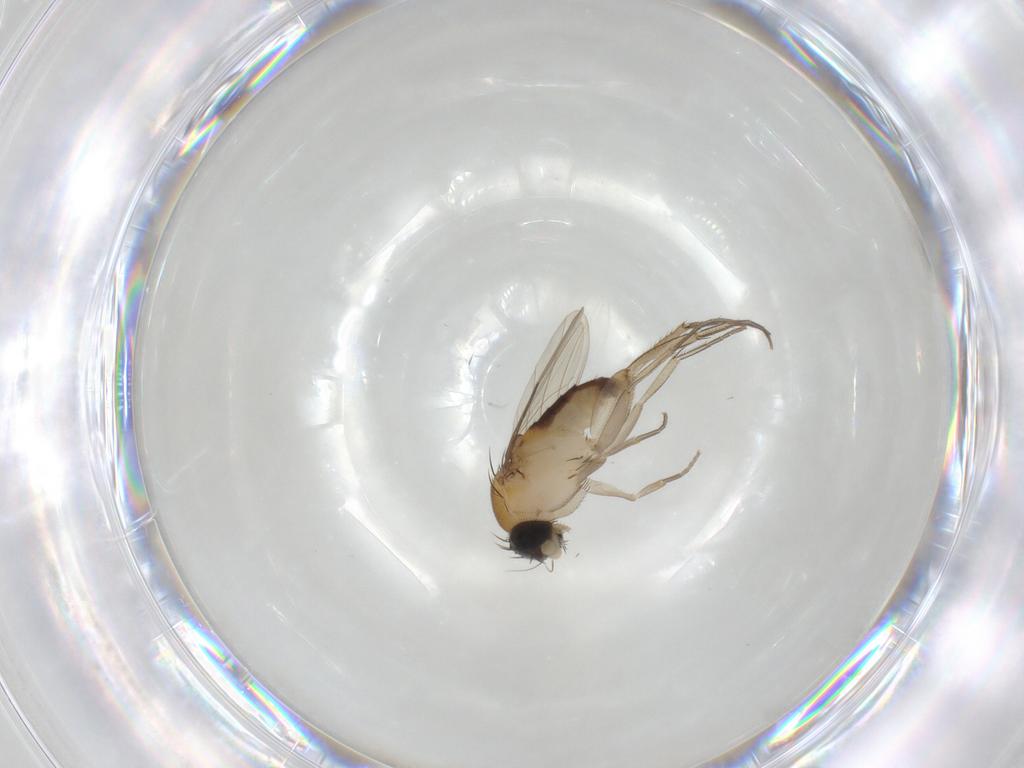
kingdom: Animalia
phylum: Arthropoda
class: Insecta
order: Diptera
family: Phoridae
